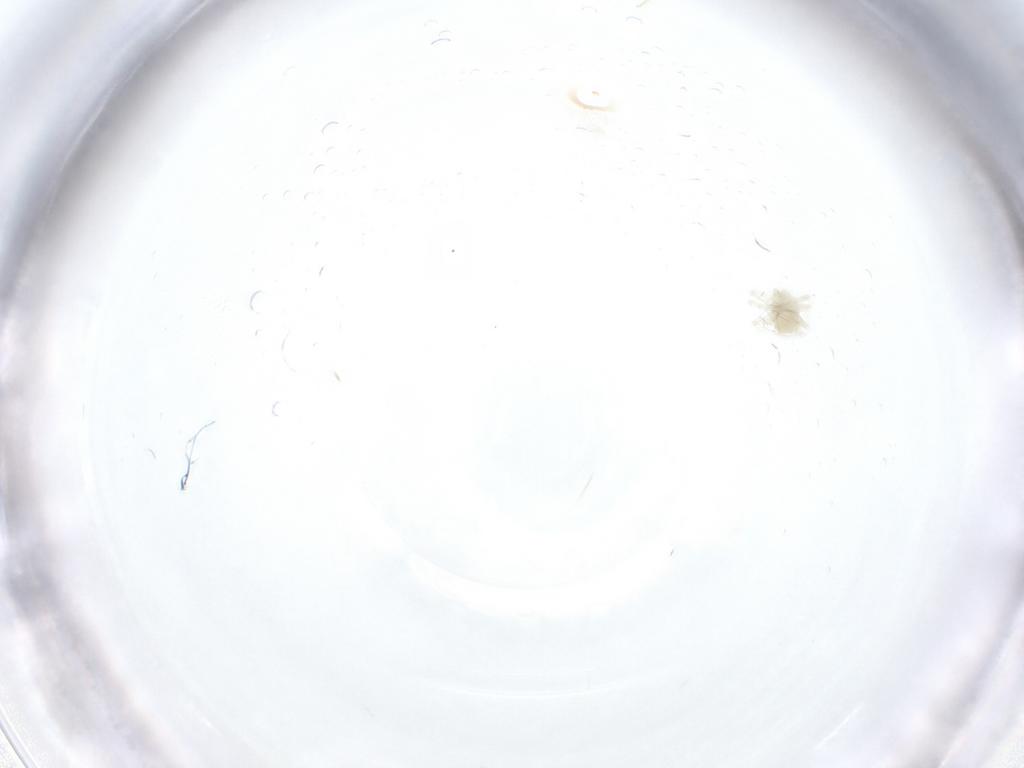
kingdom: Animalia
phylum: Arthropoda
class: Arachnida
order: Trombidiformes
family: Anystidae
